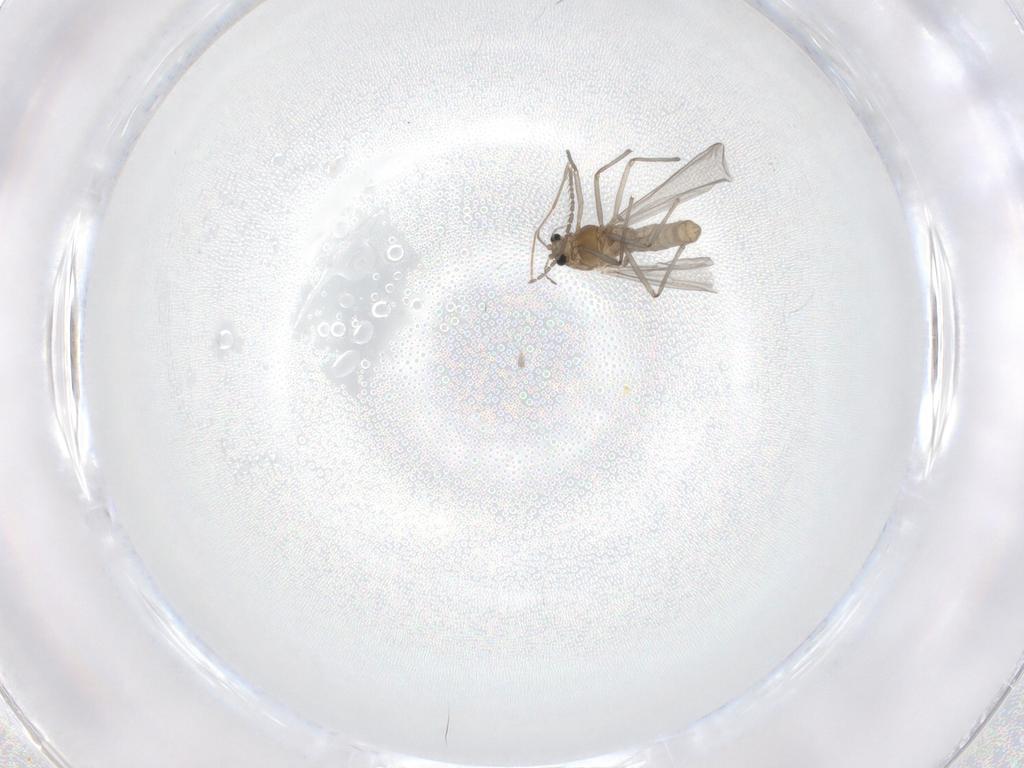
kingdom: Animalia
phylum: Arthropoda
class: Insecta
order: Diptera
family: Chironomidae
